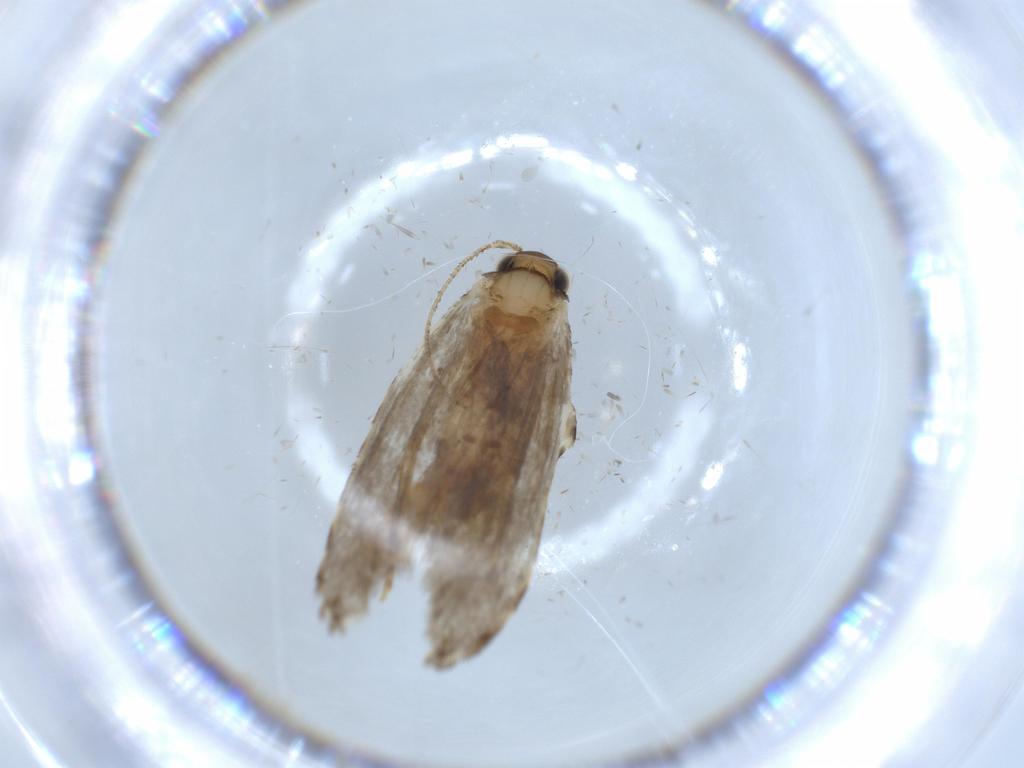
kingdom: Animalia
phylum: Arthropoda
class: Insecta
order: Lepidoptera
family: Tineidae
